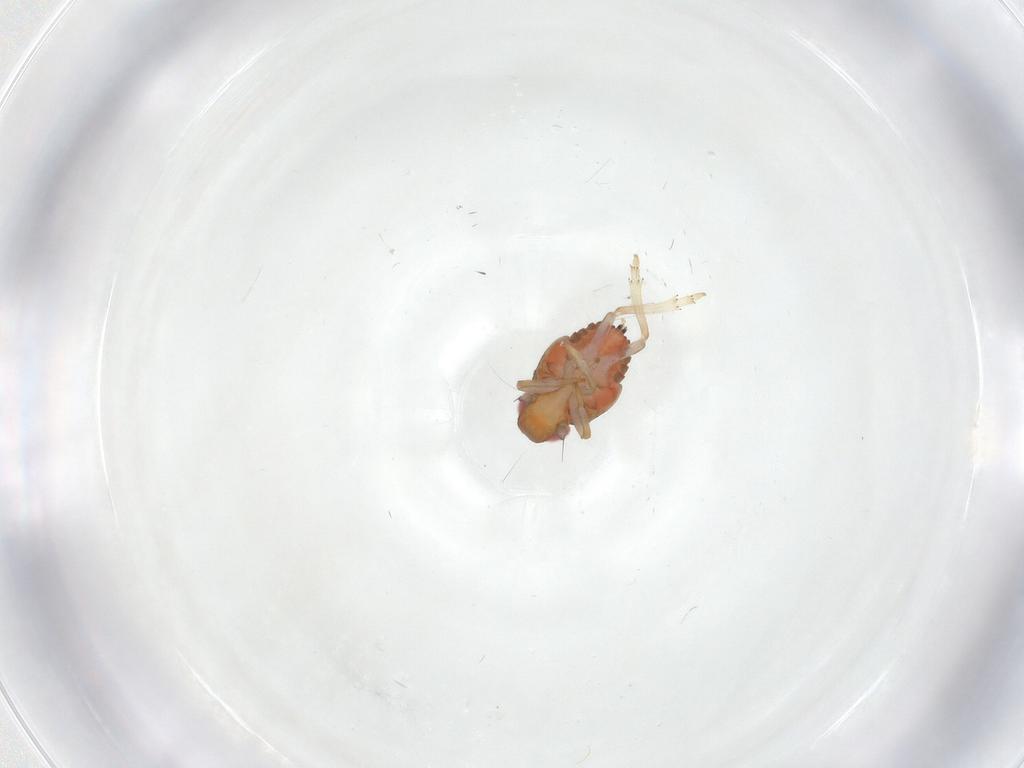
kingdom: Animalia
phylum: Arthropoda
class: Insecta
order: Hemiptera
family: Issidae
